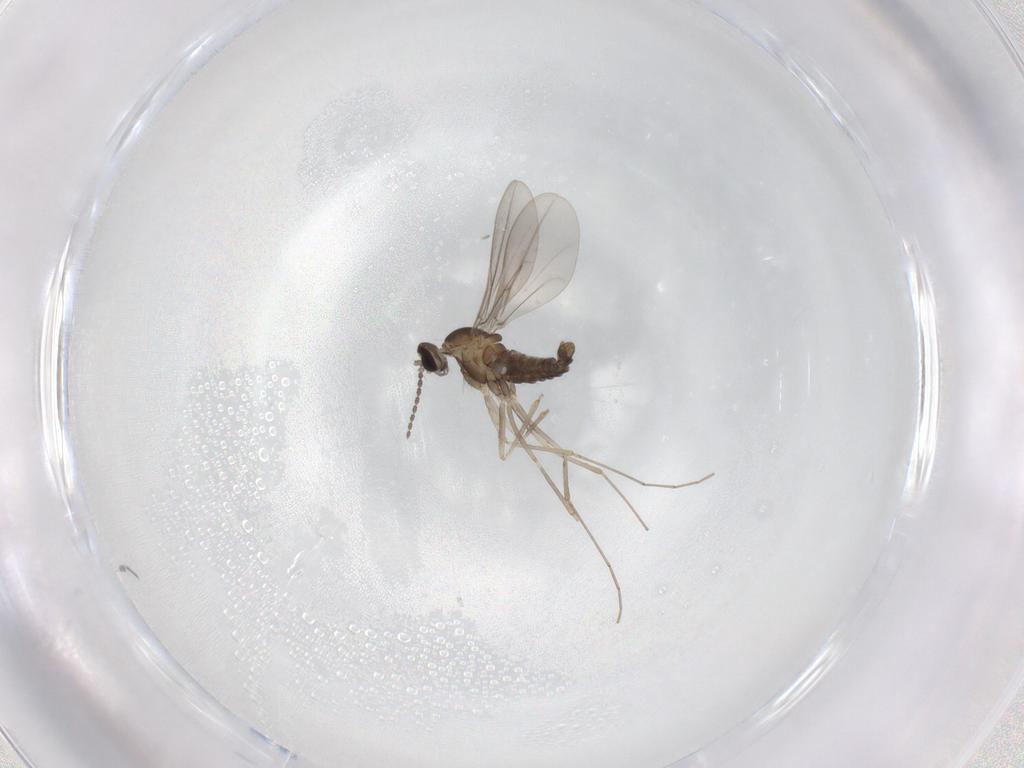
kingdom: Animalia
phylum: Arthropoda
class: Insecta
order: Diptera
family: Cecidomyiidae
